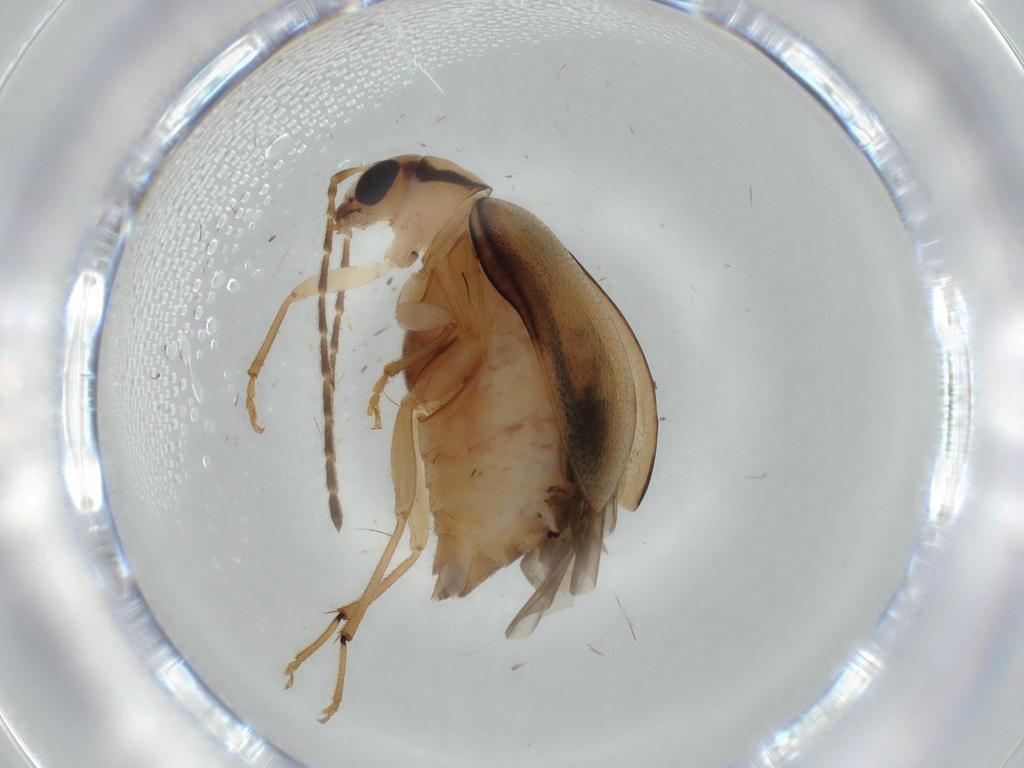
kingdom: Animalia
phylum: Arthropoda
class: Insecta
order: Coleoptera
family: Chrysomelidae
